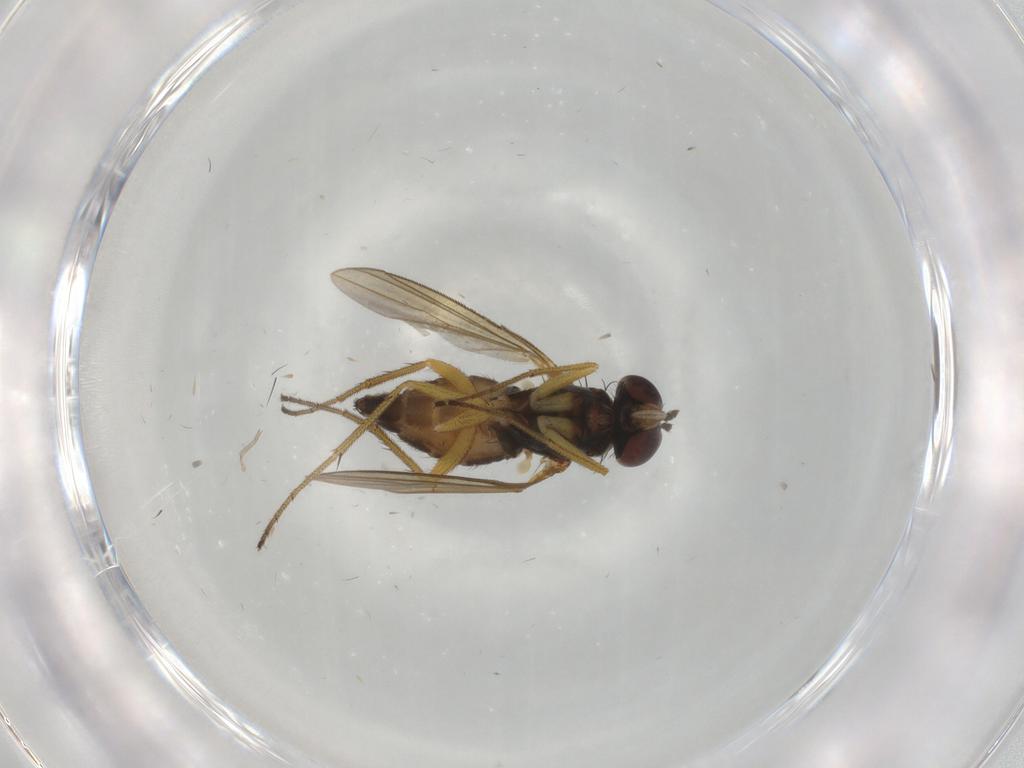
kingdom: Animalia
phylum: Arthropoda
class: Insecta
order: Diptera
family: Dolichopodidae
